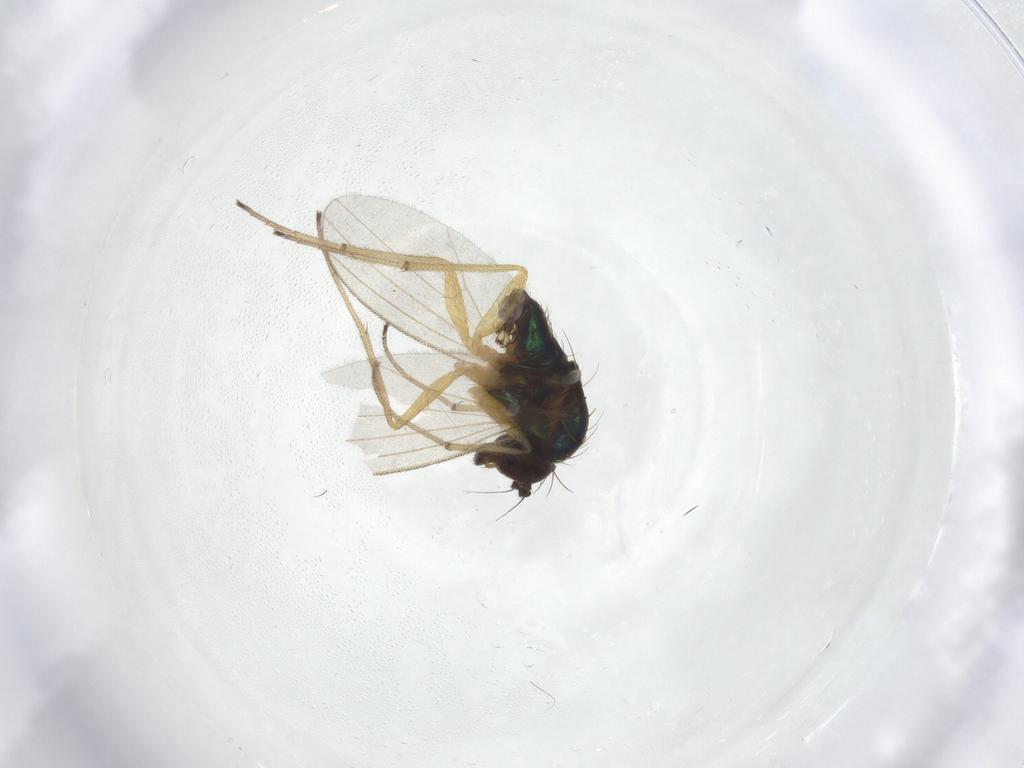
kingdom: Animalia
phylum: Arthropoda
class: Insecta
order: Diptera
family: Dolichopodidae
